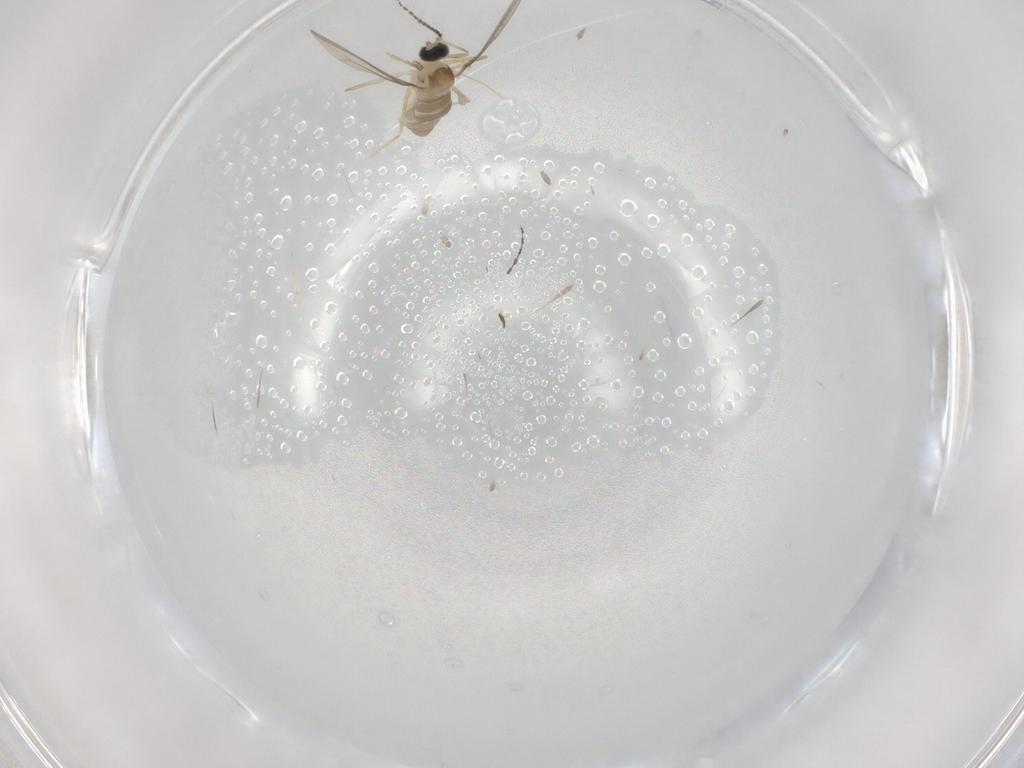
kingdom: Animalia
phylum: Arthropoda
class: Insecta
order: Diptera
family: Cecidomyiidae
